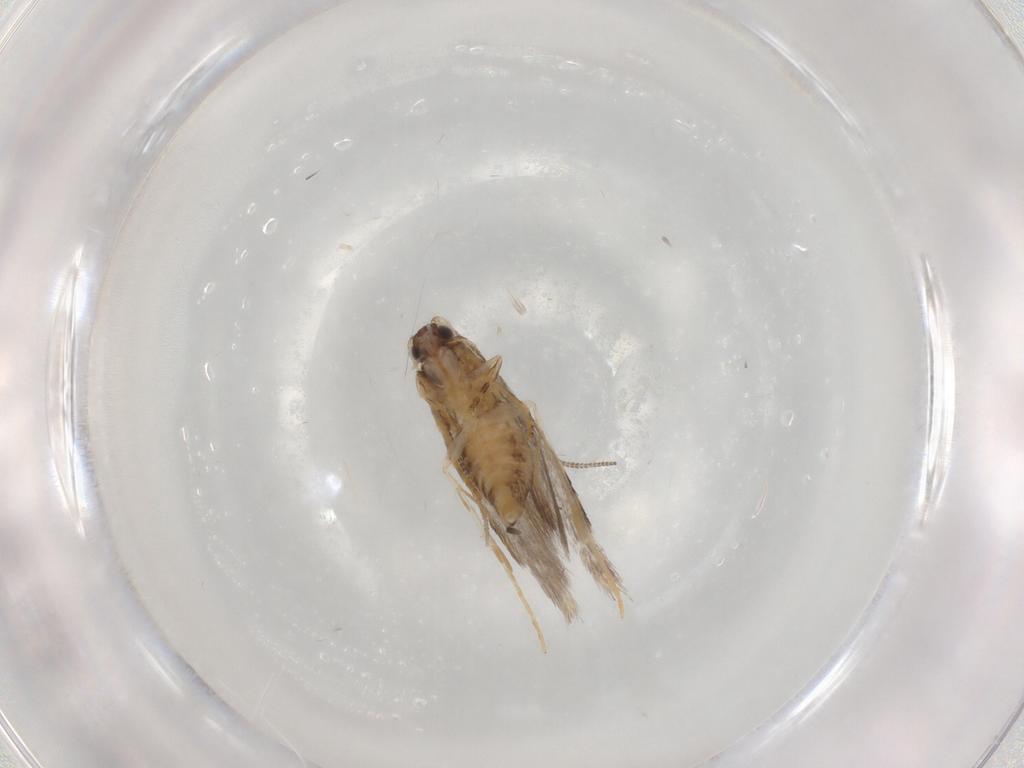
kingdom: Animalia
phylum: Arthropoda
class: Insecta
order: Lepidoptera
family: Tineidae
